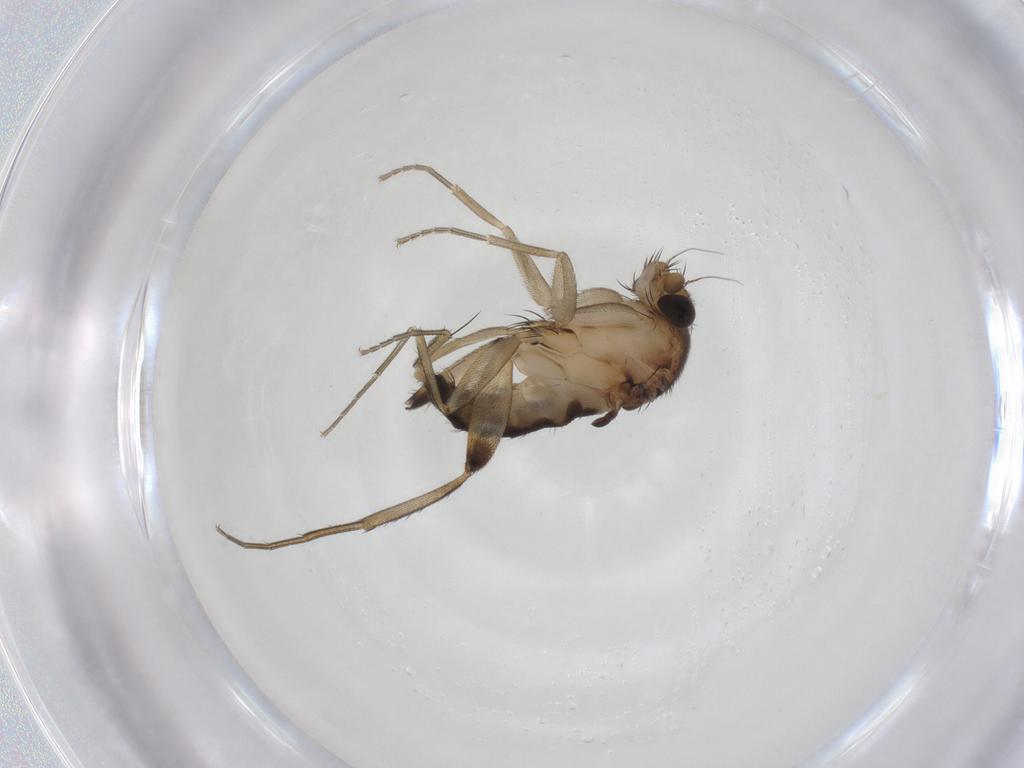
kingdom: Animalia
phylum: Arthropoda
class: Insecta
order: Diptera
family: Phoridae
